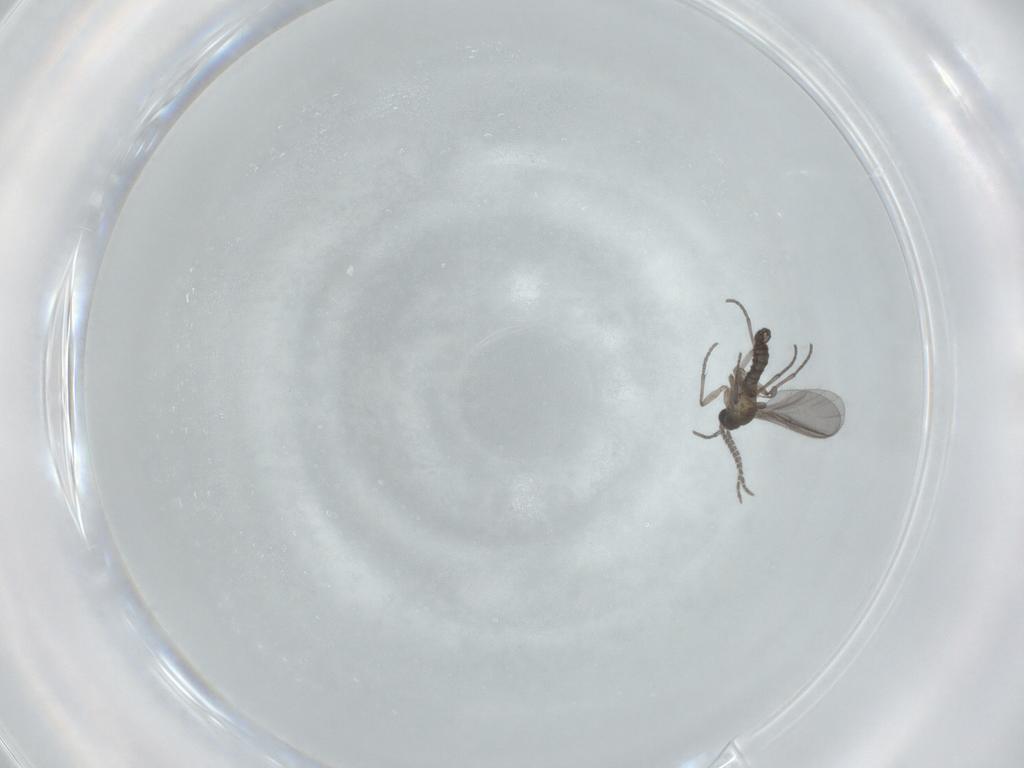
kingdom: Animalia
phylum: Arthropoda
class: Insecta
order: Diptera
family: Sciaridae
